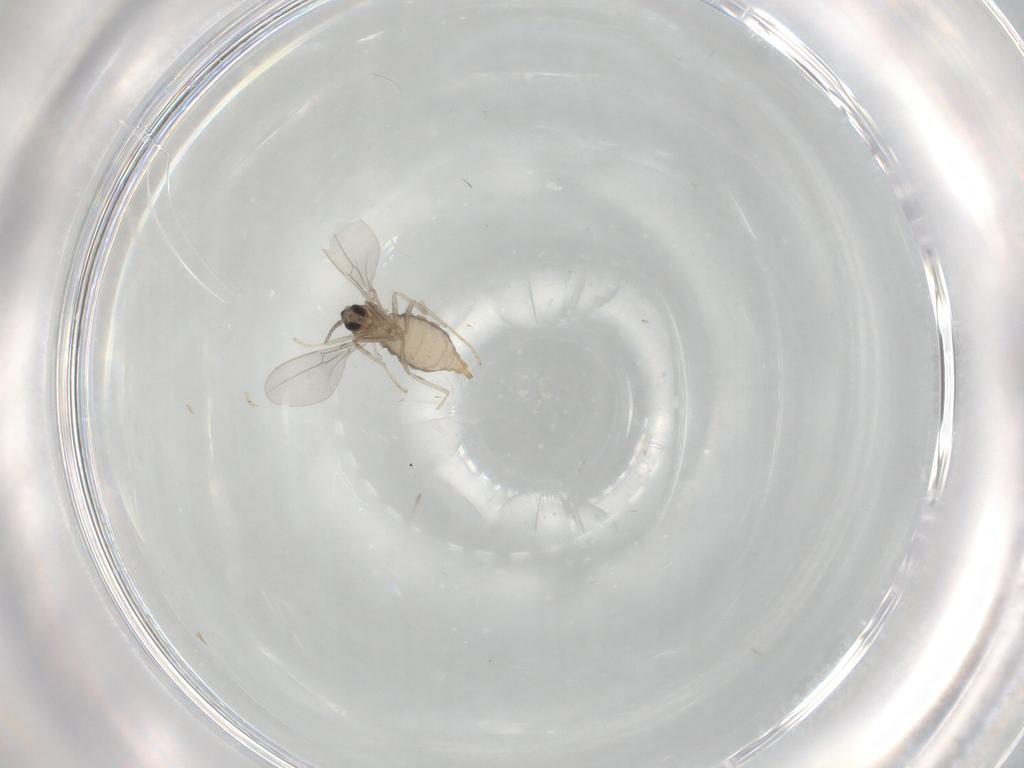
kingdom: Animalia
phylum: Arthropoda
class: Insecta
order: Diptera
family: Cecidomyiidae
